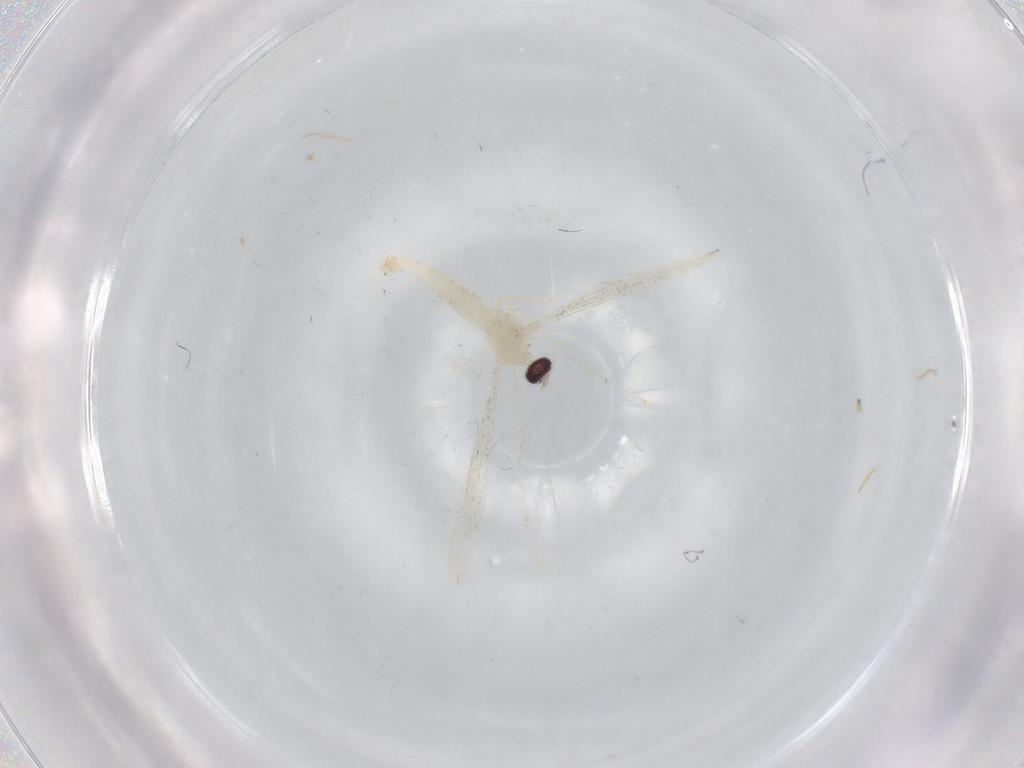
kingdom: Animalia
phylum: Arthropoda
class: Insecta
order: Diptera
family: Cecidomyiidae
